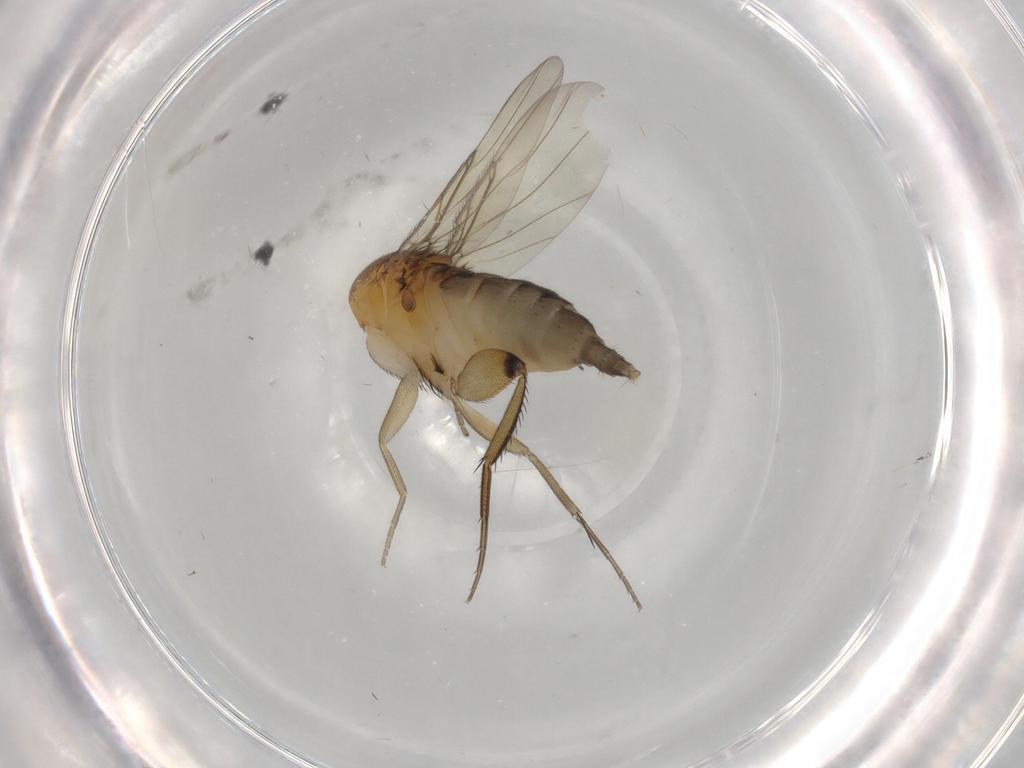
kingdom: Animalia
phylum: Arthropoda
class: Insecta
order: Diptera
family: Phoridae
